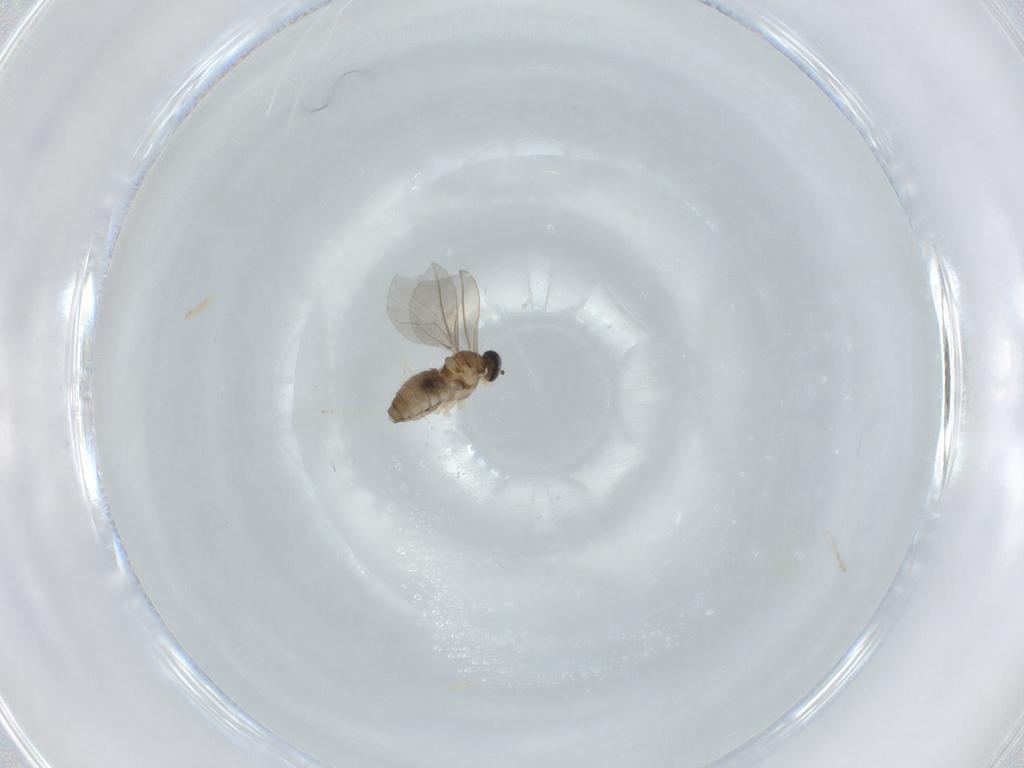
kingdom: Animalia
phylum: Arthropoda
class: Insecta
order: Diptera
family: Cecidomyiidae
